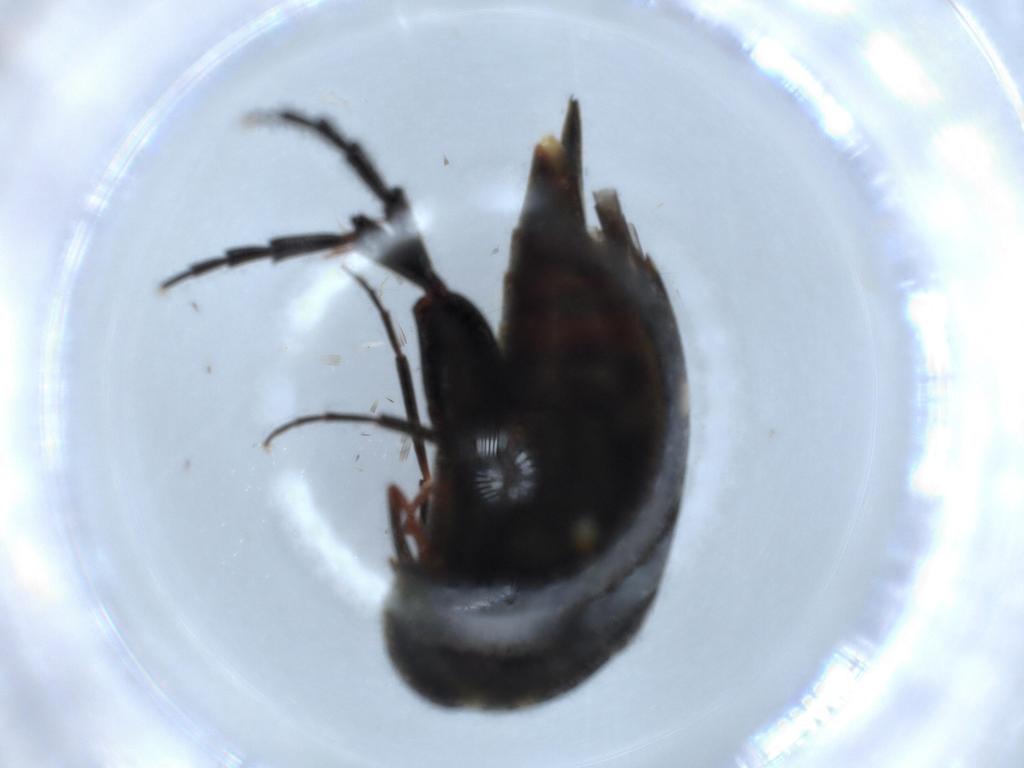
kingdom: Animalia
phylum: Arthropoda
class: Insecta
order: Coleoptera
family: Chrysomelidae
